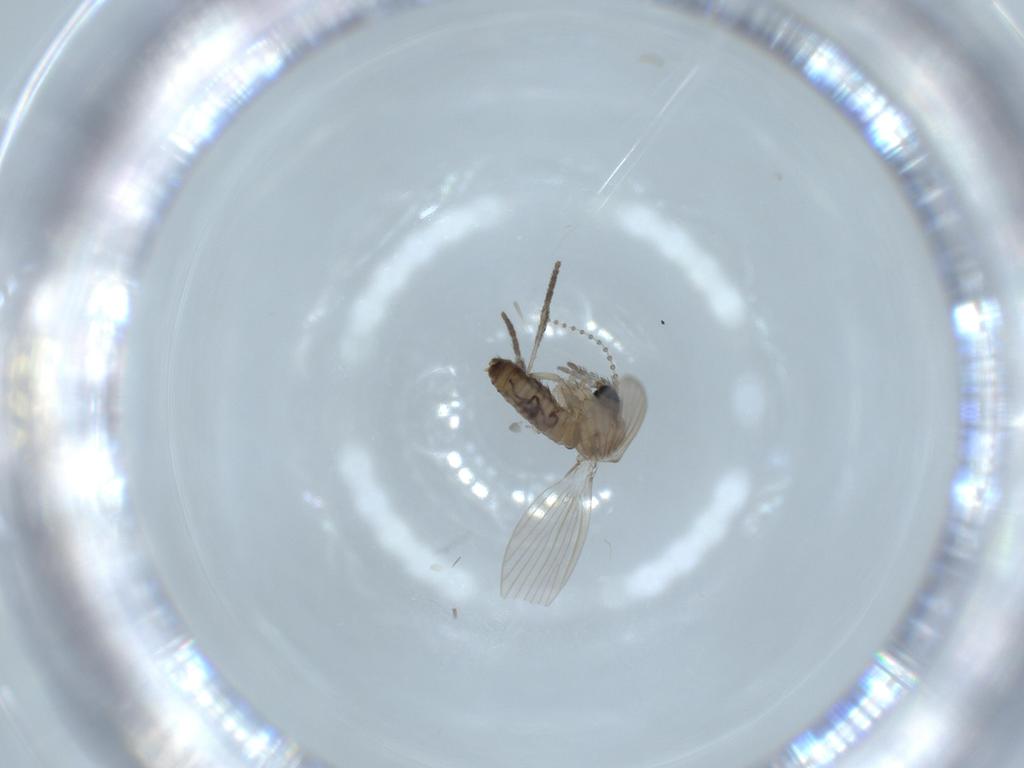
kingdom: Animalia
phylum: Arthropoda
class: Insecta
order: Diptera
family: Psychodidae
